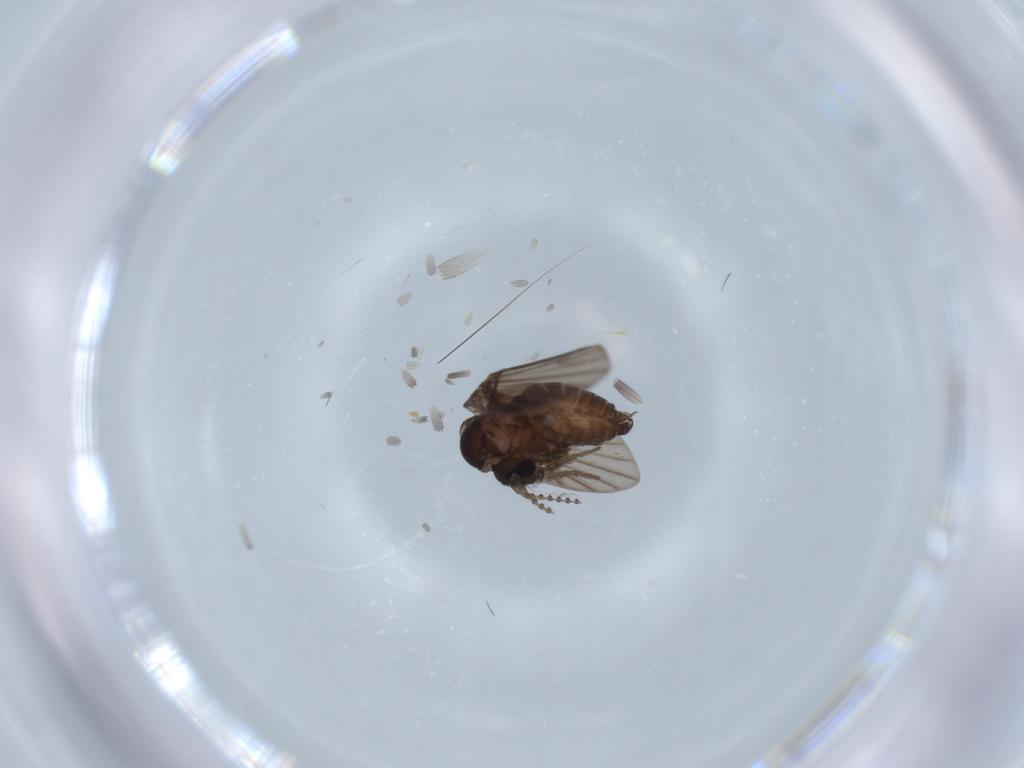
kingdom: Animalia
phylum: Arthropoda
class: Insecta
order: Diptera
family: Psychodidae
